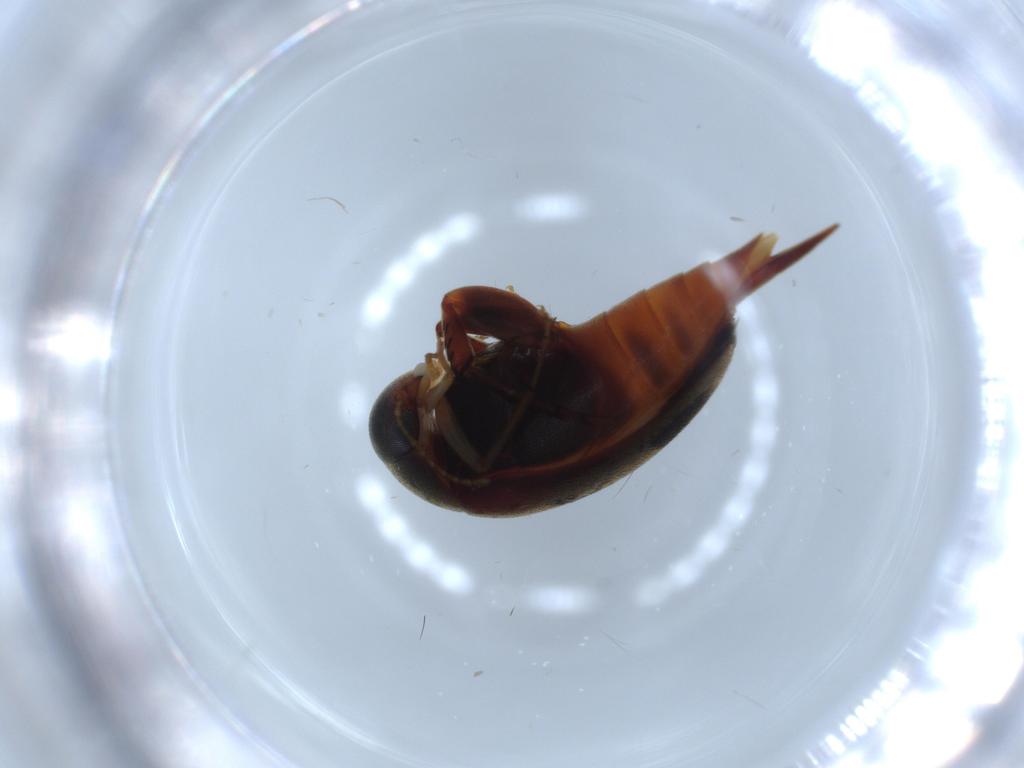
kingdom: Animalia
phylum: Arthropoda
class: Insecta
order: Coleoptera
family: Mordellidae
